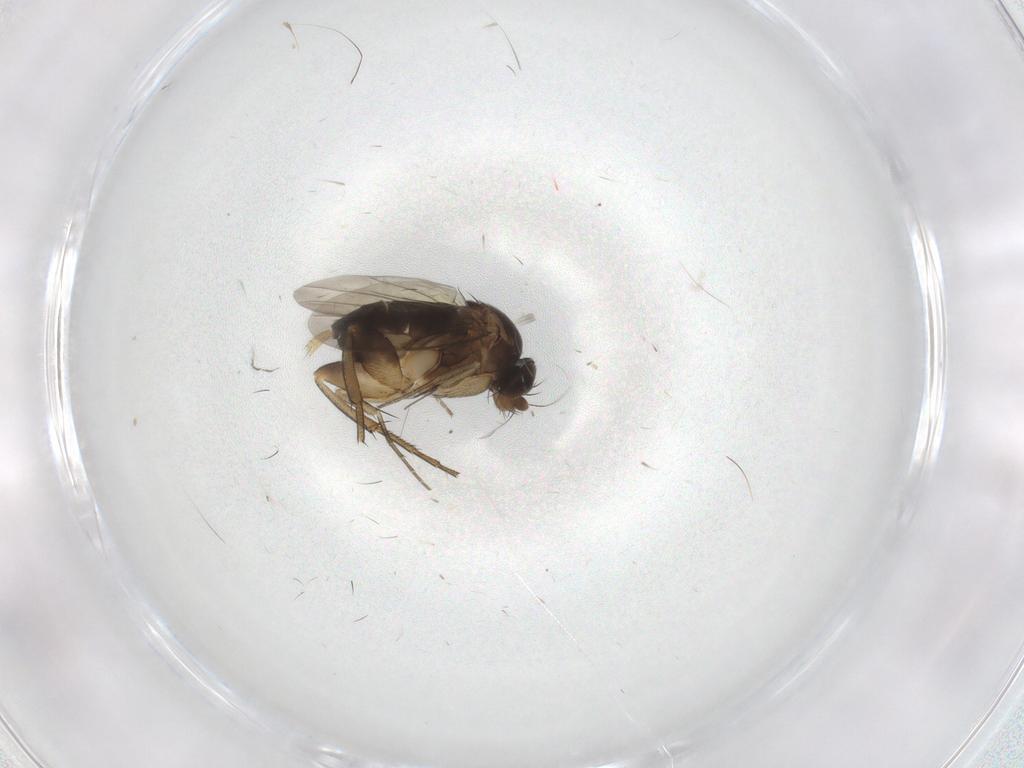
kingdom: Animalia
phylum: Arthropoda
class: Insecta
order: Diptera
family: Phoridae
